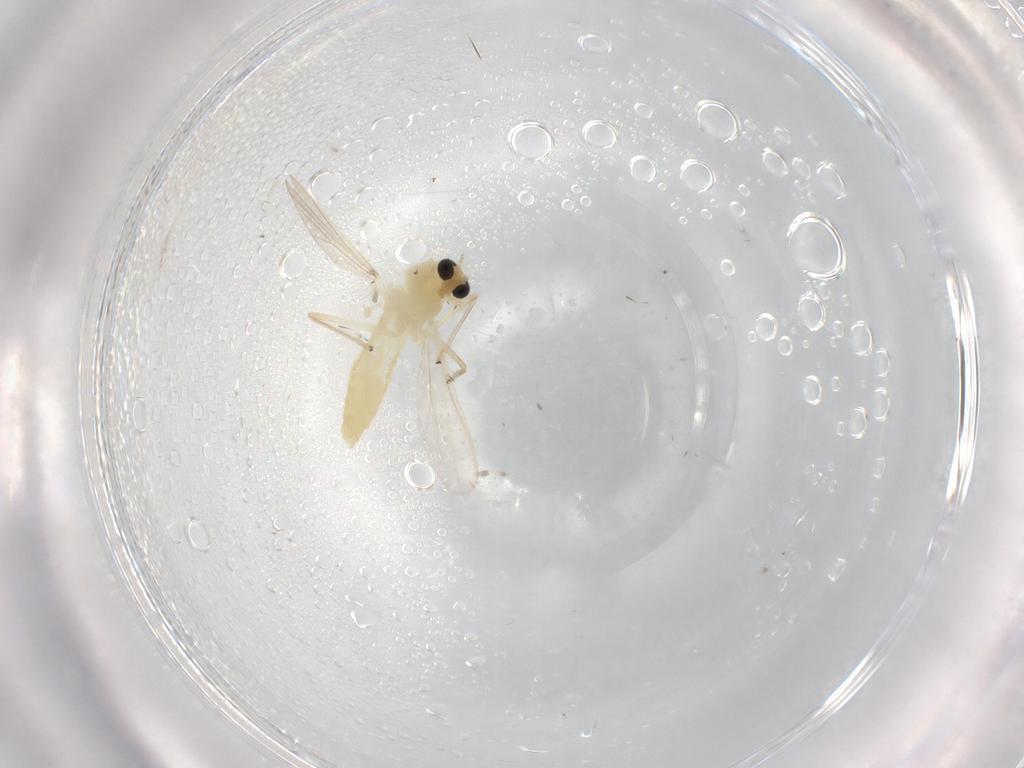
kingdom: Animalia
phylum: Arthropoda
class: Insecta
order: Diptera
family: Chironomidae
